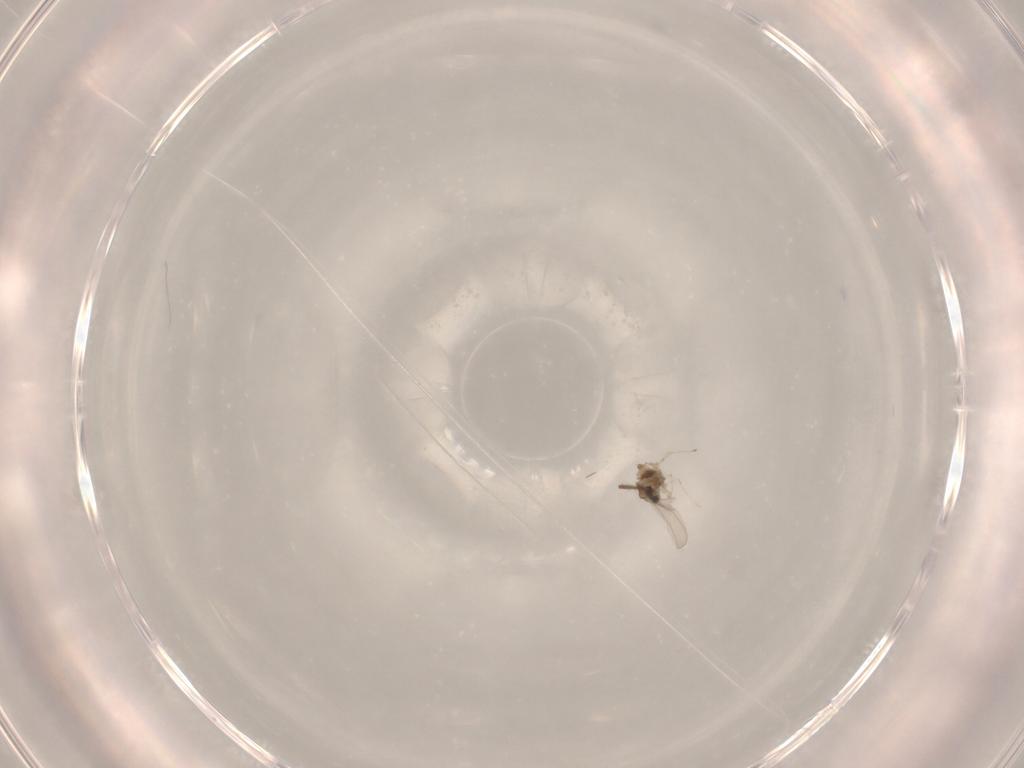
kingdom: Animalia
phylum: Arthropoda
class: Insecta
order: Diptera
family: Cecidomyiidae
